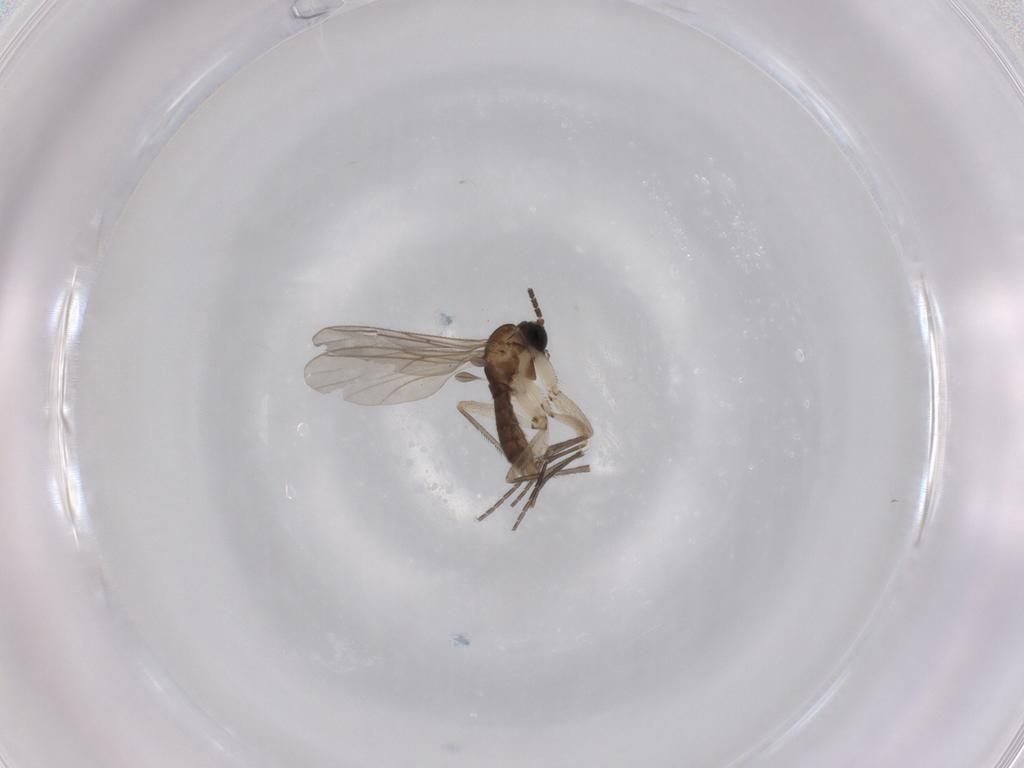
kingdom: Animalia
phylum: Arthropoda
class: Insecta
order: Diptera
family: Sciaridae
